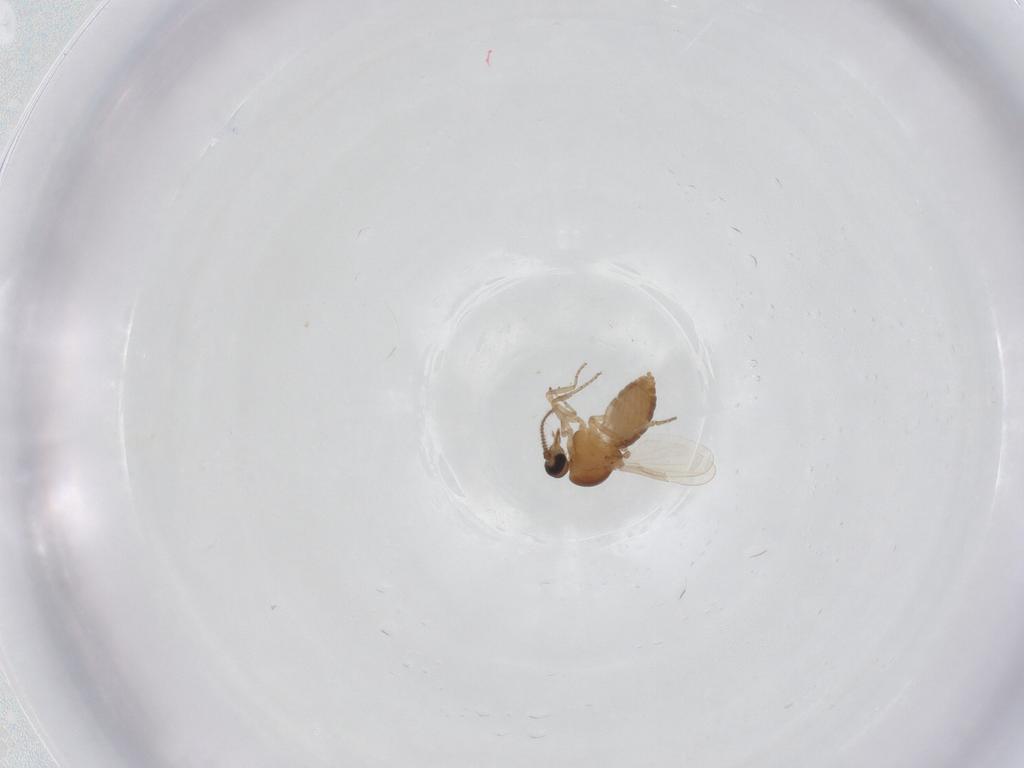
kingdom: Animalia
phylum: Arthropoda
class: Insecta
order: Diptera
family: Ceratopogonidae
